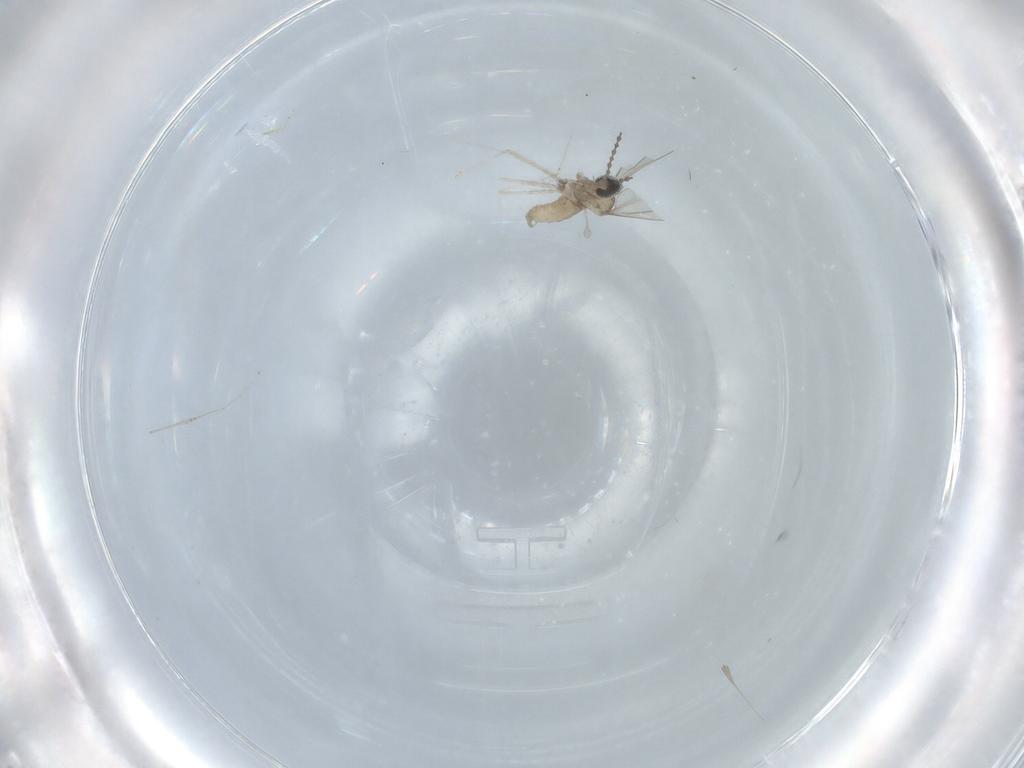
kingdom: Animalia
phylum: Arthropoda
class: Insecta
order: Diptera
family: Cecidomyiidae
